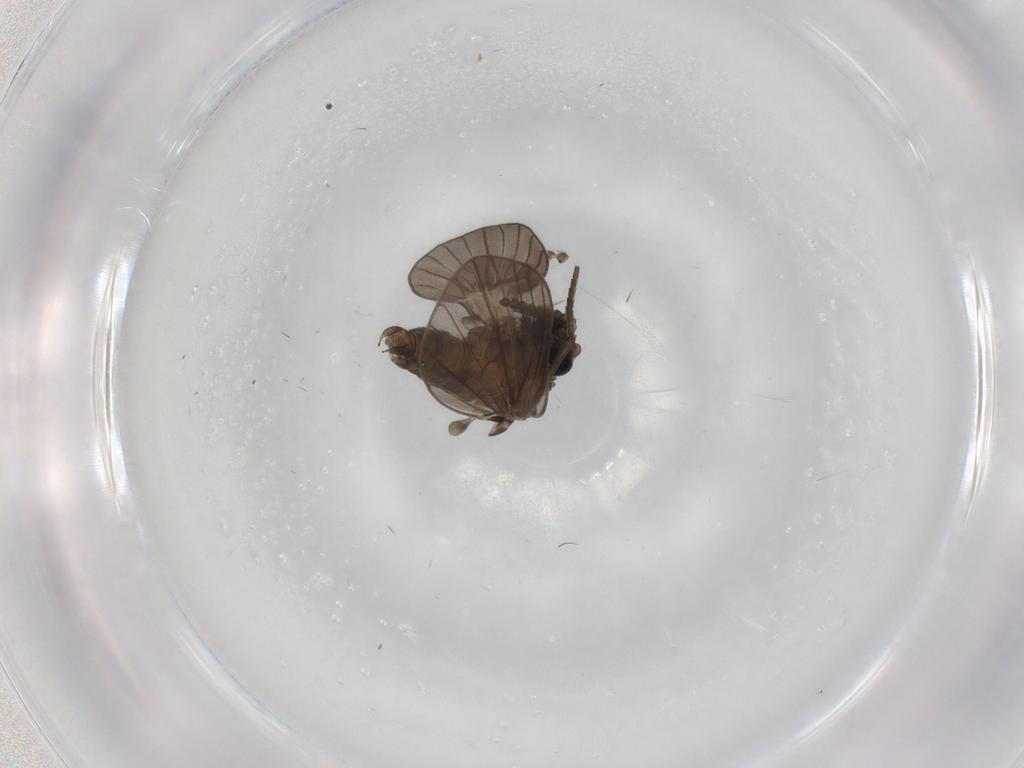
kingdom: Animalia
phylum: Arthropoda
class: Insecta
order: Diptera
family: Psychodidae
